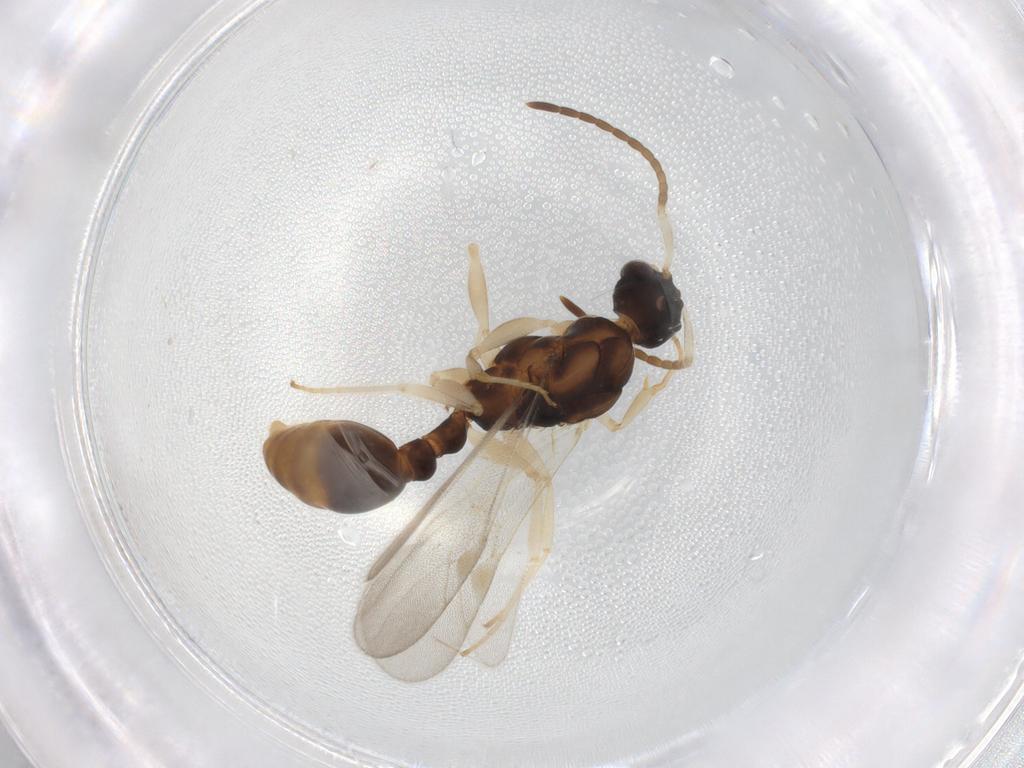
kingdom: Animalia
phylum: Arthropoda
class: Insecta
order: Hymenoptera
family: Formicidae
